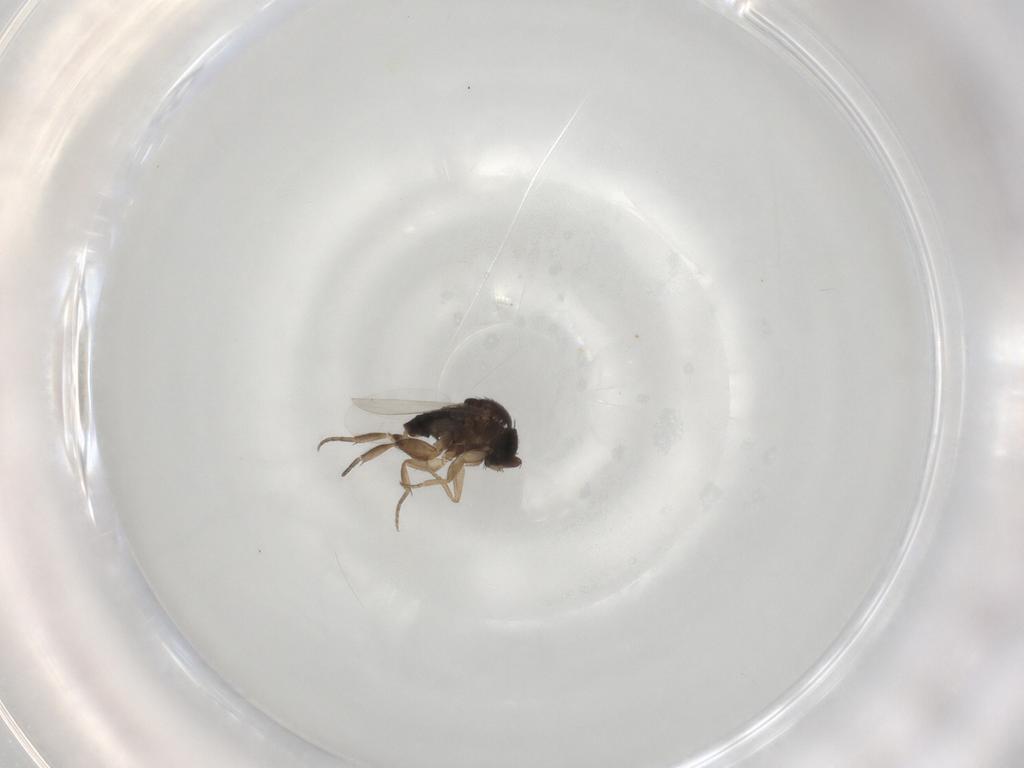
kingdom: Animalia
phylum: Arthropoda
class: Insecta
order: Diptera
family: Phoridae
